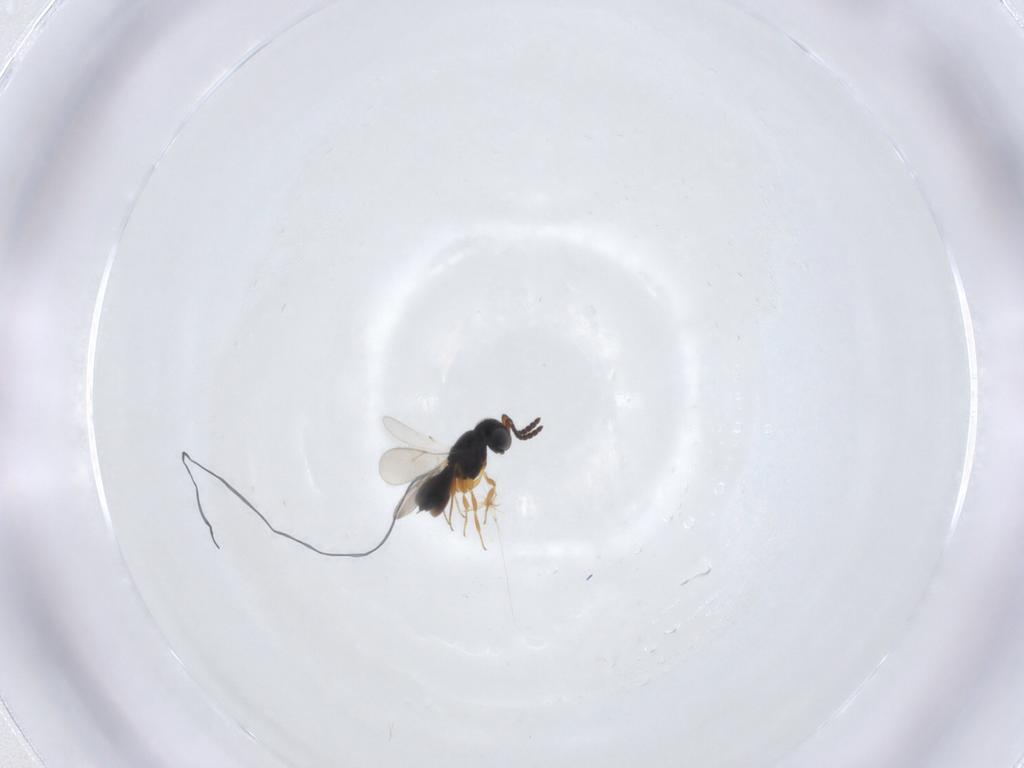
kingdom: Animalia
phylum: Arthropoda
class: Insecta
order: Hymenoptera
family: Scelionidae
